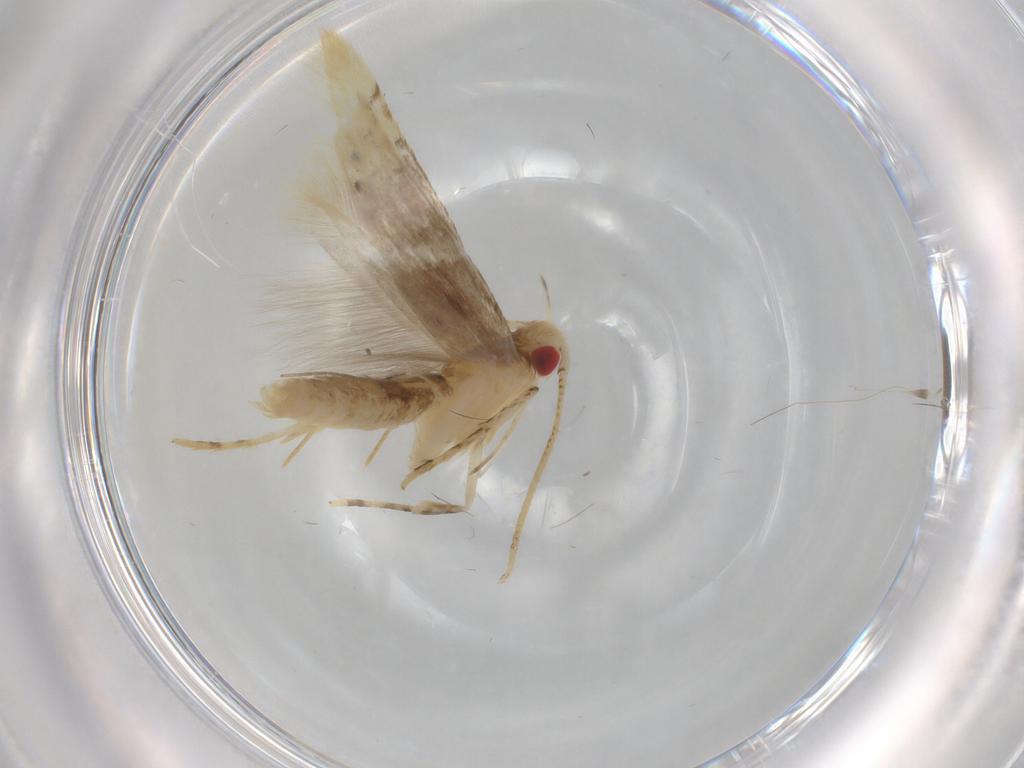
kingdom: Animalia
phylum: Arthropoda
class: Insecta
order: Lepidoptera
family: Cosmopterigidae
